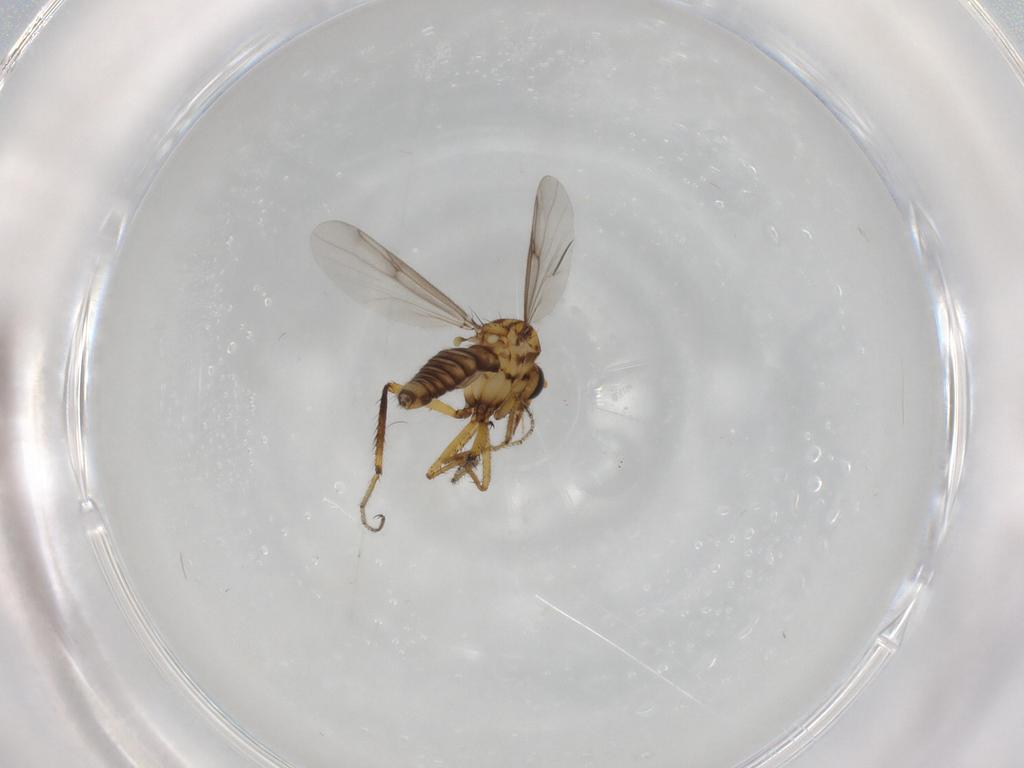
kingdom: Animalia
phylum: Arthropoda
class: Insecta
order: Diptera
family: Ceratopogonidae
